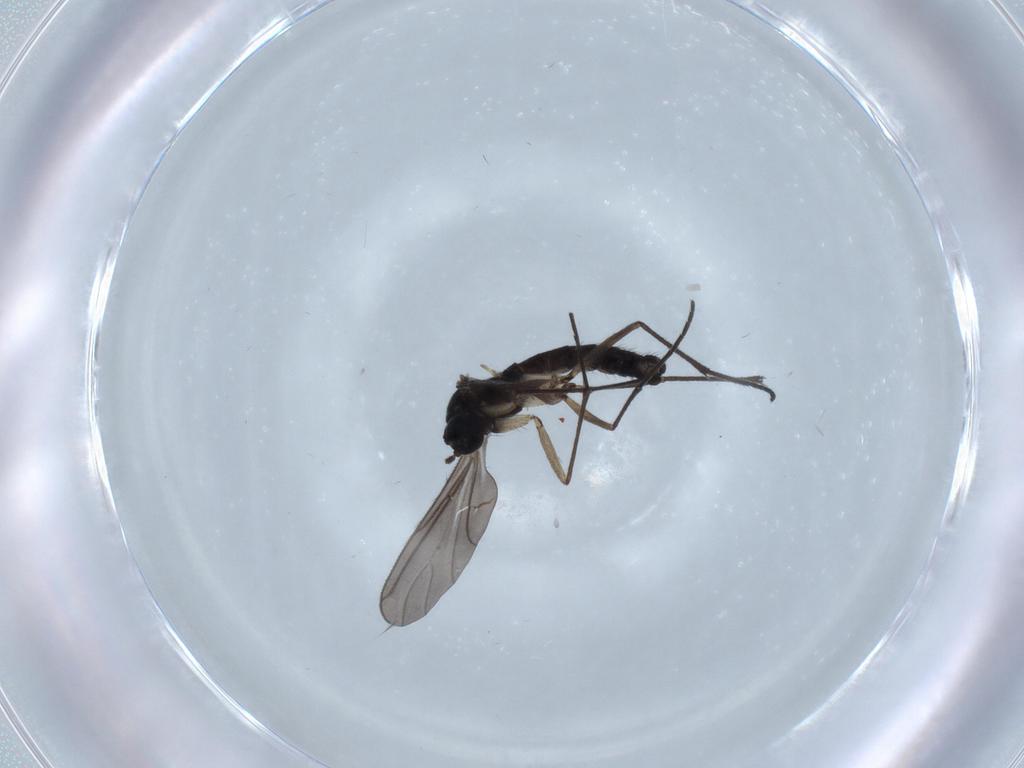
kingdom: Animalia
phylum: Arthropoda
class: Insecta
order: Diptera
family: Sciaridae
